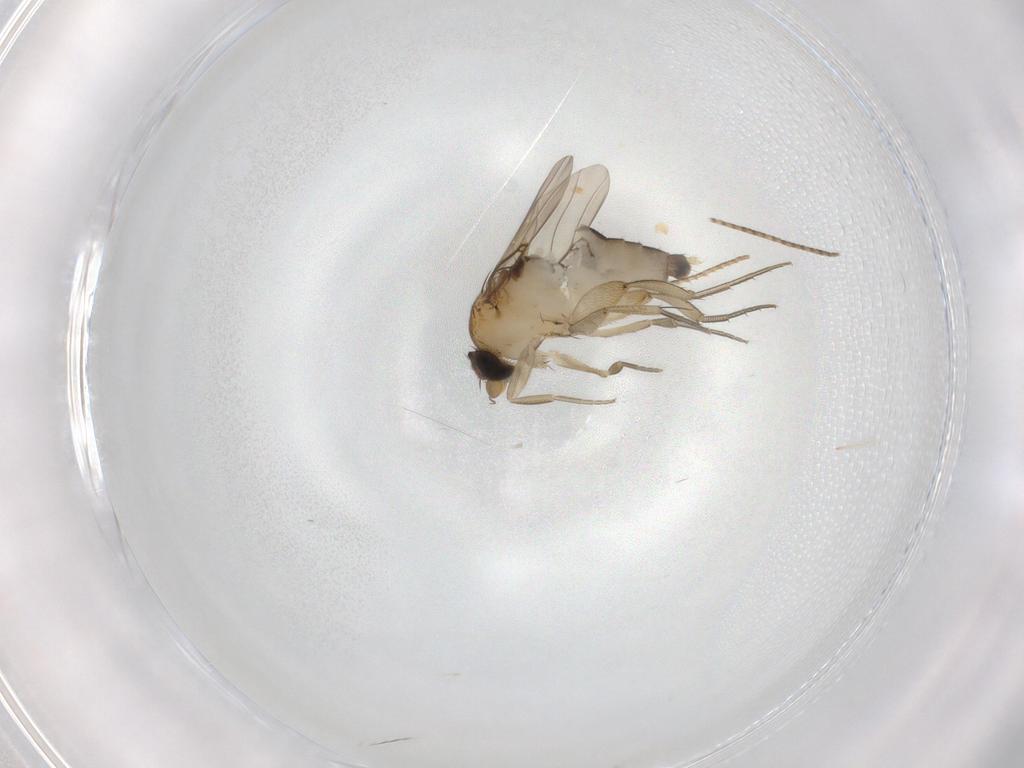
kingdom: Animalia
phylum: Arthropoda
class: Insecta
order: Diptera
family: Phoridae
